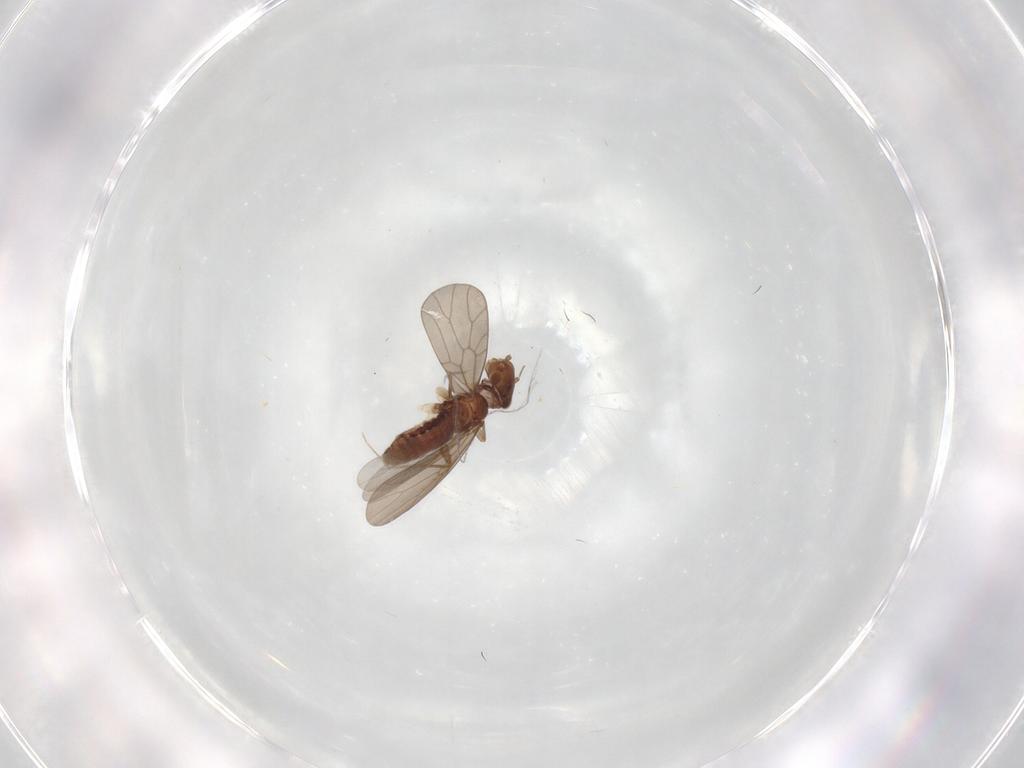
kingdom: Animalia
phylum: Arthropoda
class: Insecta
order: Psocodea
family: Lepidopsocidae
